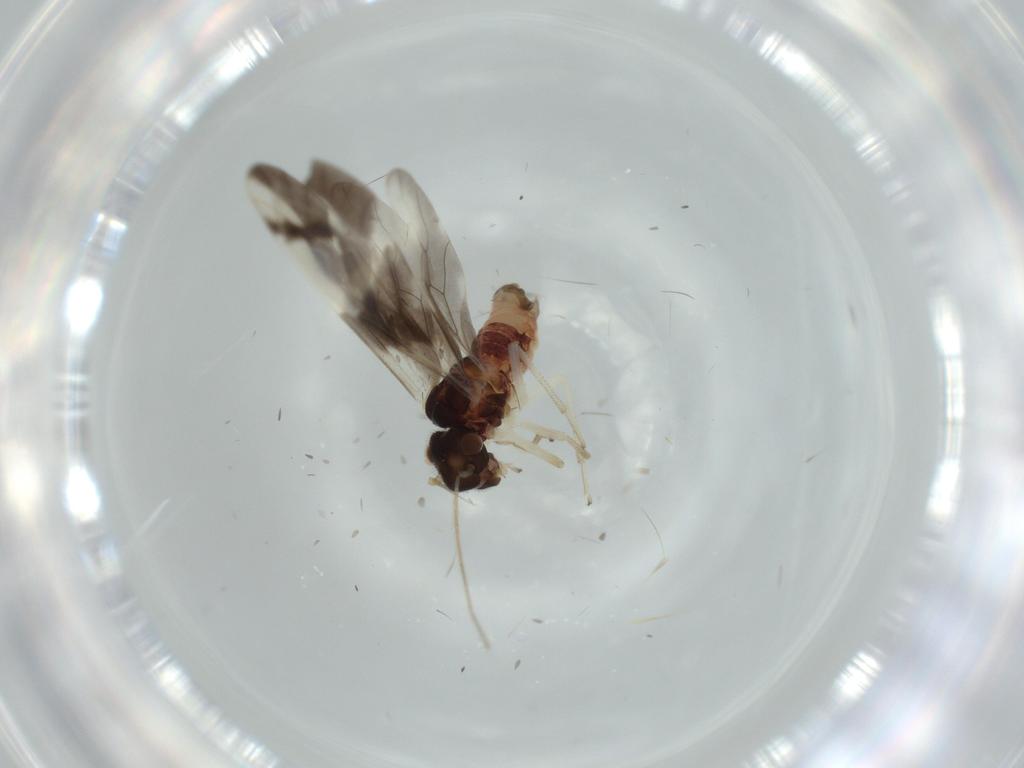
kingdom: Animalia
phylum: Arthropoda
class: Insecta
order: Psocodea
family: Caeciliusidae
